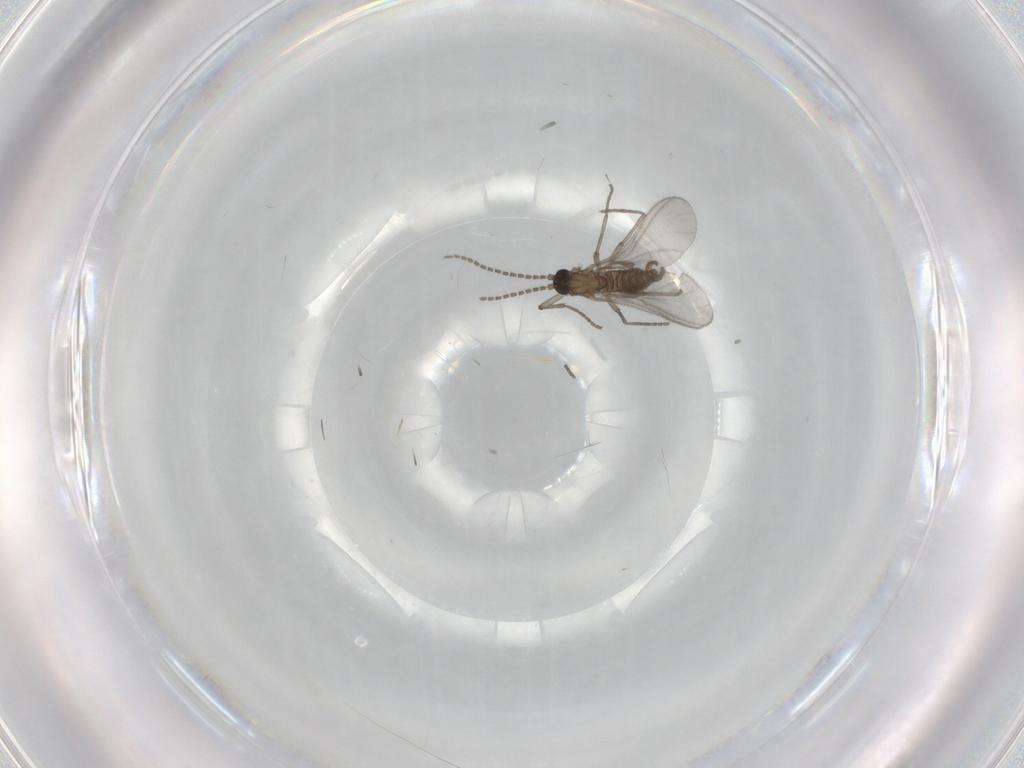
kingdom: Animalia
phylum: Arthropoda
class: Insecta
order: Diptera
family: Sciaridae
